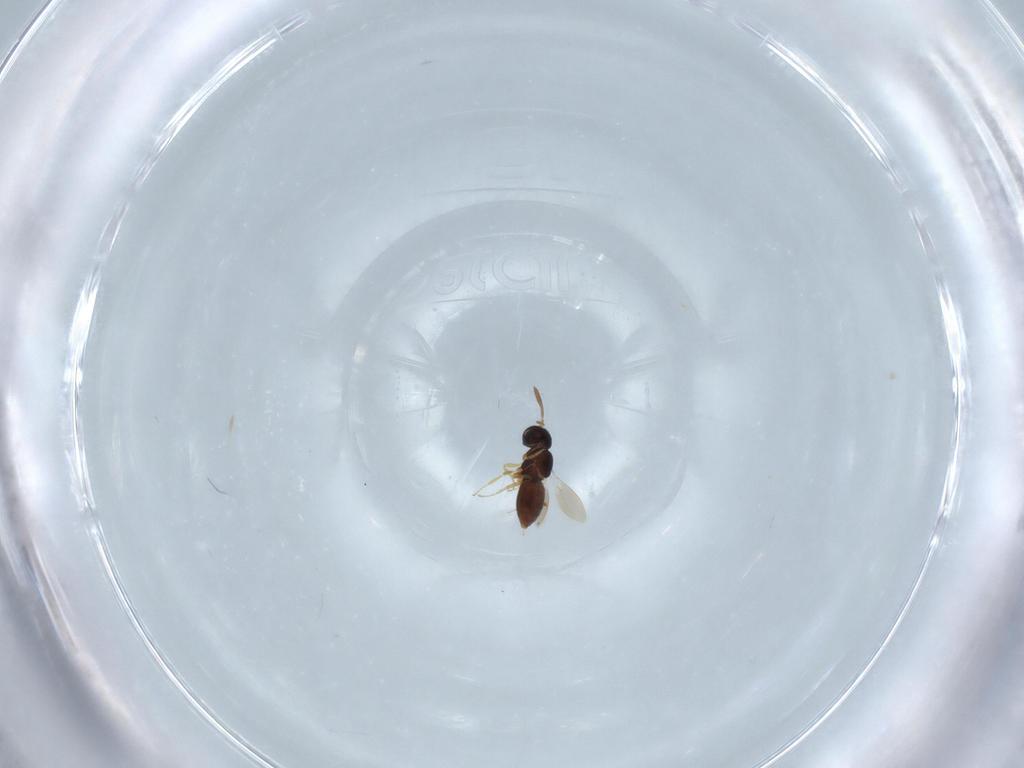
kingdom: Animalia
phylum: Arthropoda
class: Insecta
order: Hymenoptera
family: Crabronidae
